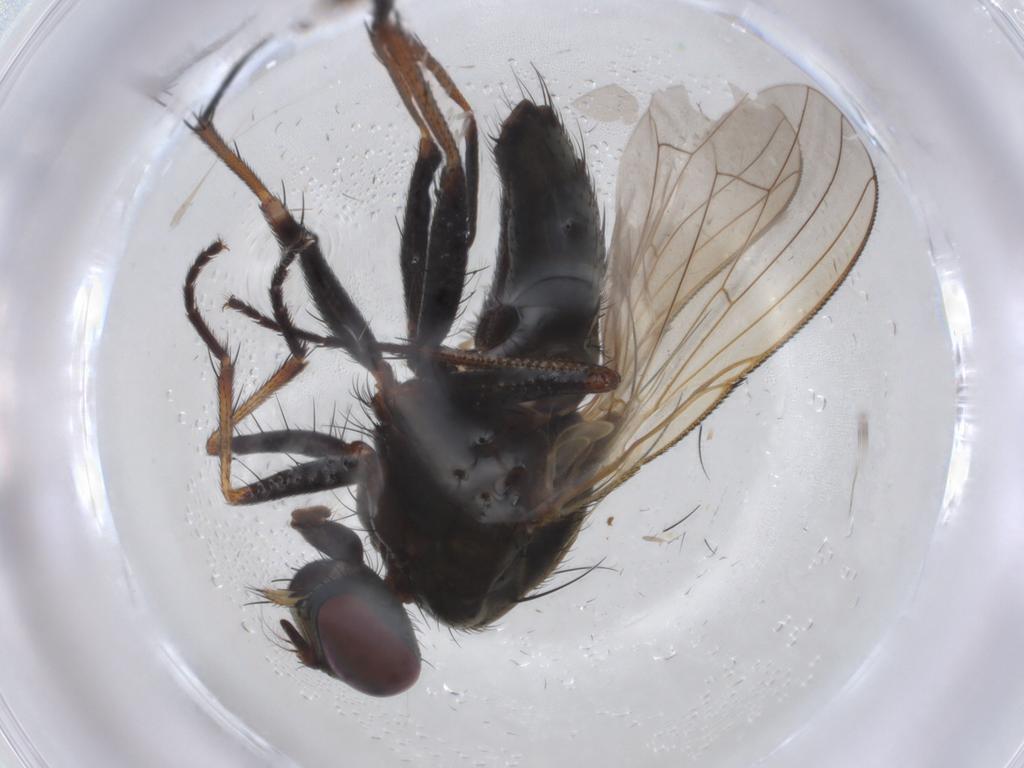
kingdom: Animalia
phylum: Arthropoda
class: Insecta
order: Diptera
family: Muscidae
